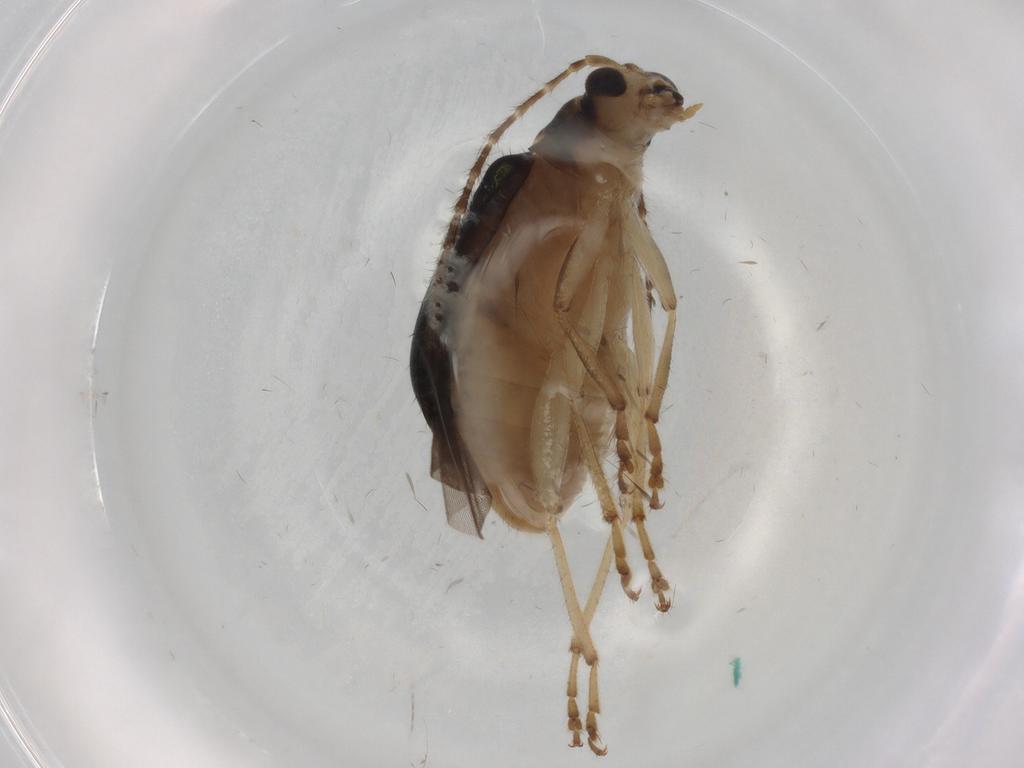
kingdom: Animalia
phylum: Arthropoda
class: Insecta
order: Coleoptera
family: Chrysomelidae
